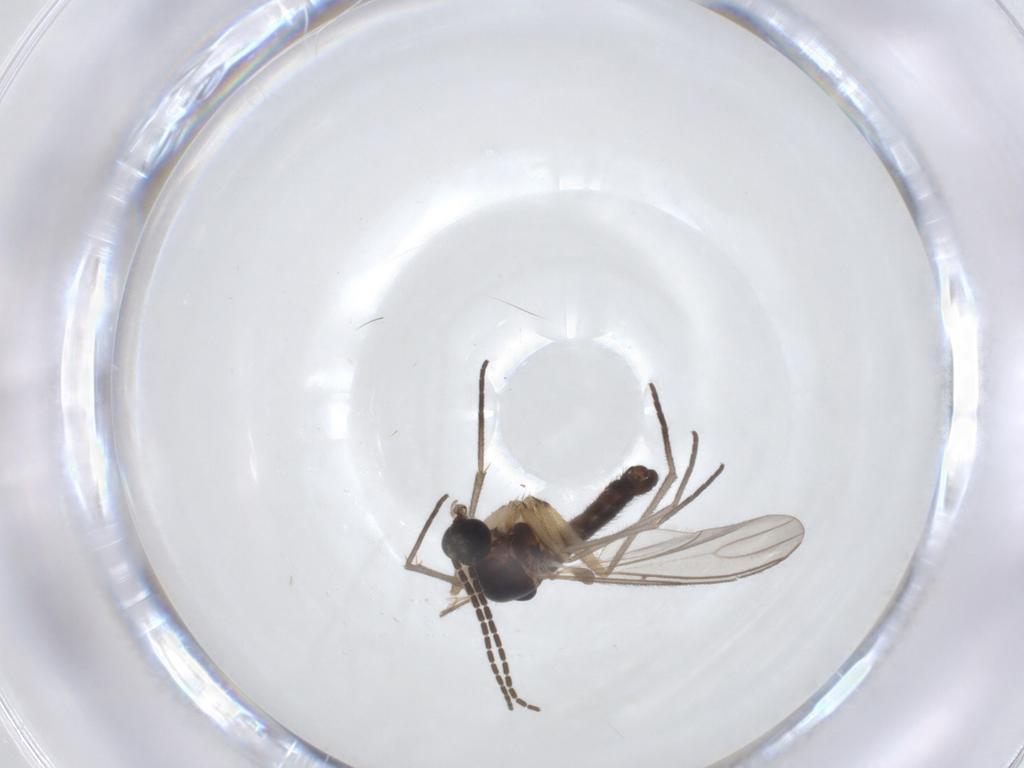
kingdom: Animalia
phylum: Arthropoda
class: Insecta
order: Diptera
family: Sciaridae
